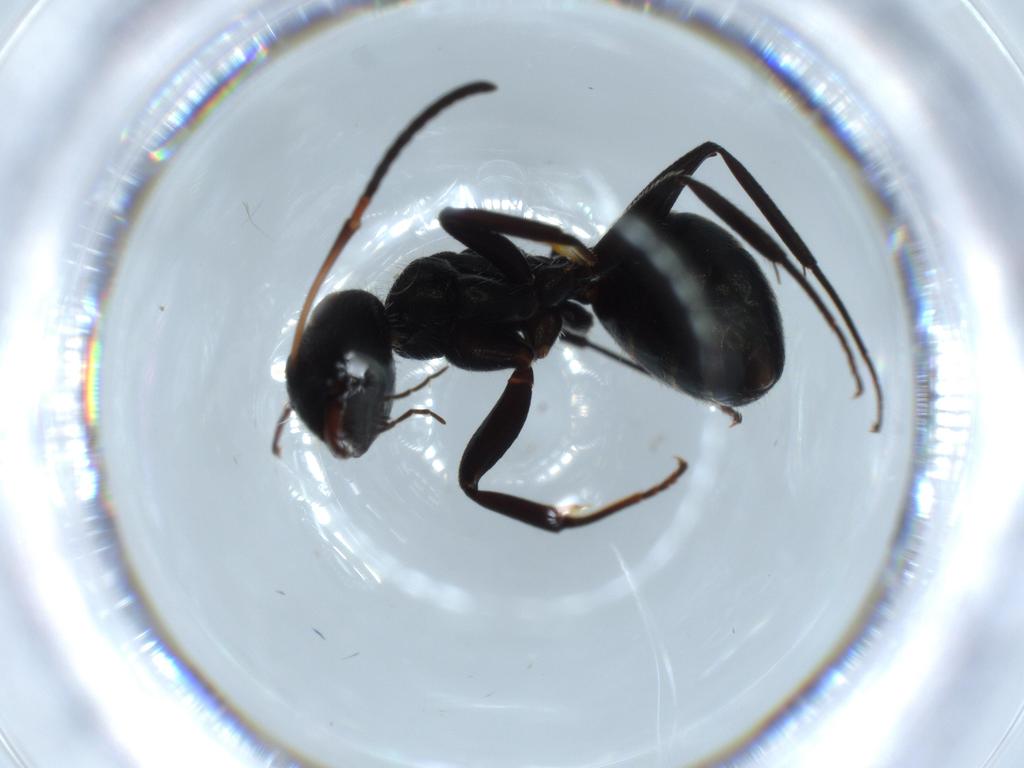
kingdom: Animalia
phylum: Arthropoda
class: Insecta
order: Hymenoptera
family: Formicidae
